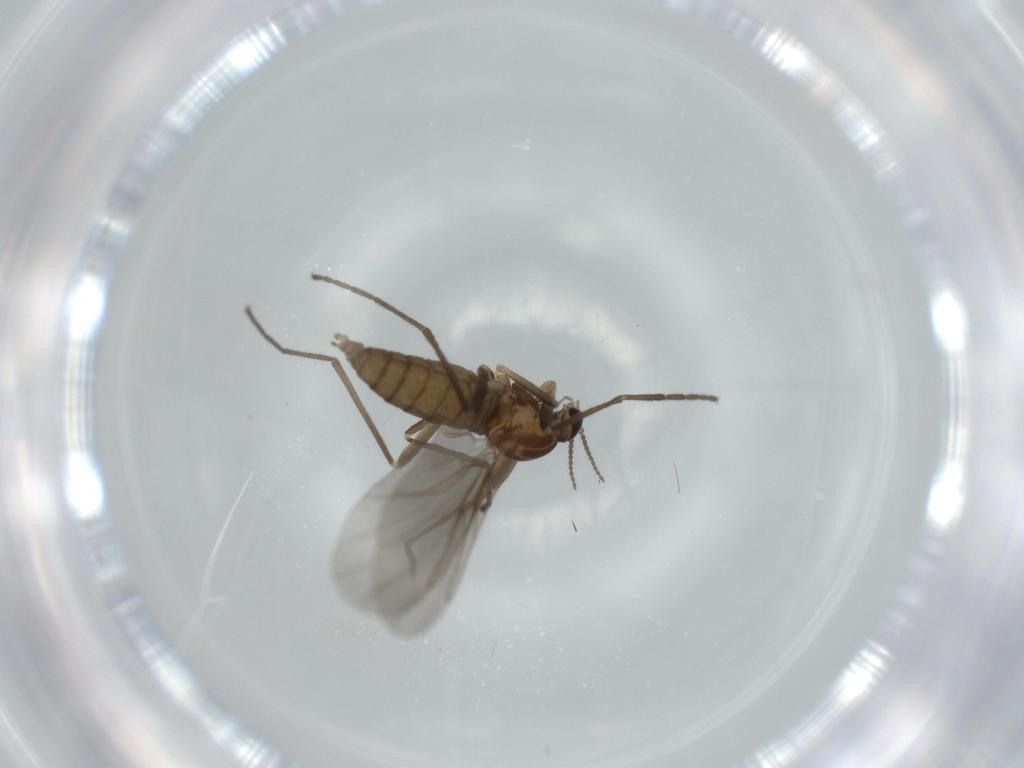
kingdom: Animalia
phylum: Arthropoda
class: Insecta
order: Diptera
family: Cecidomyiidae
